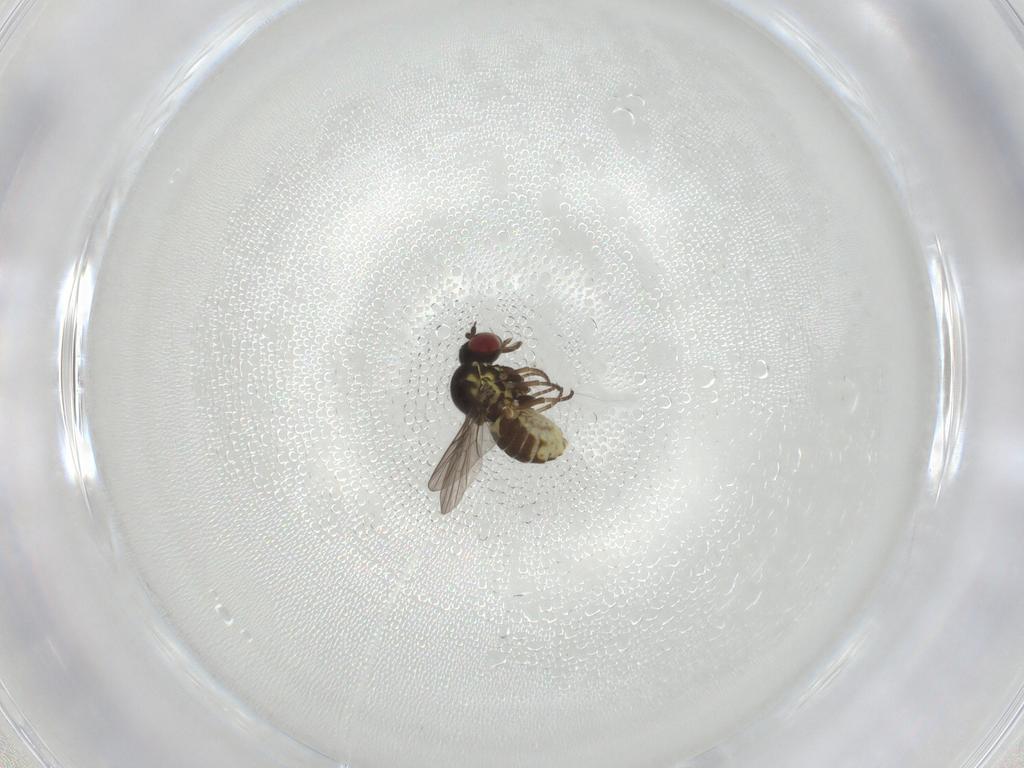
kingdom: Animalia
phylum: Arthropoda
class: Insecta
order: Diptera
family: Bombyliidae
